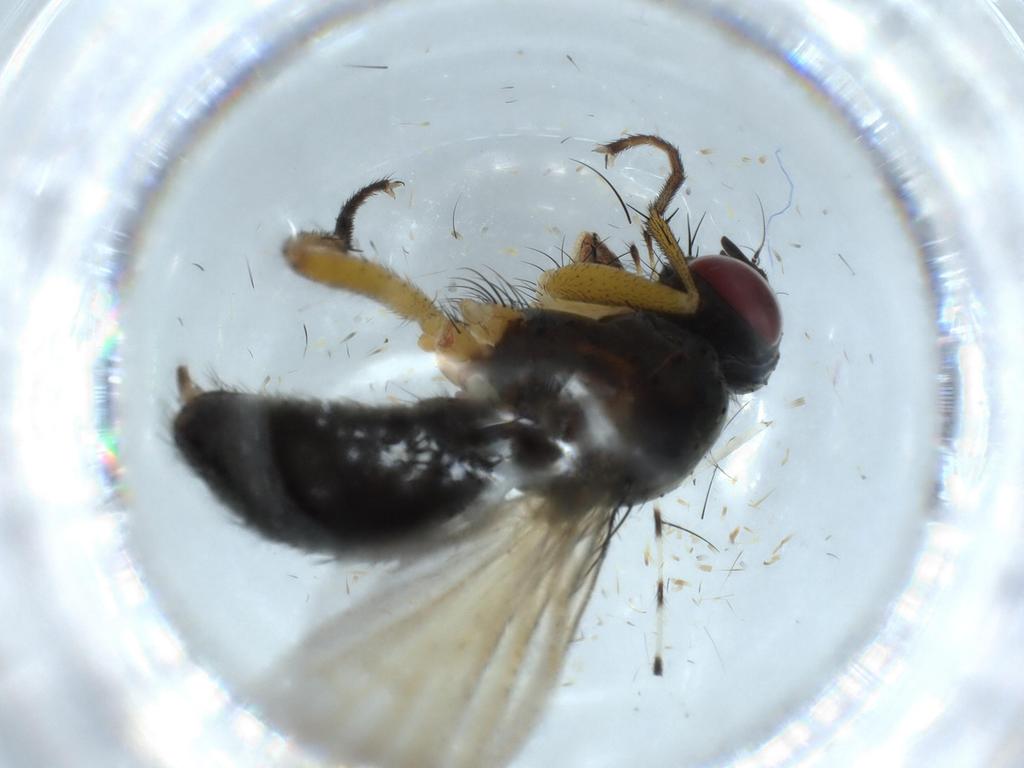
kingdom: Animalia
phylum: Arthropoda
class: Insecta
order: Diptera
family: Muscidae
